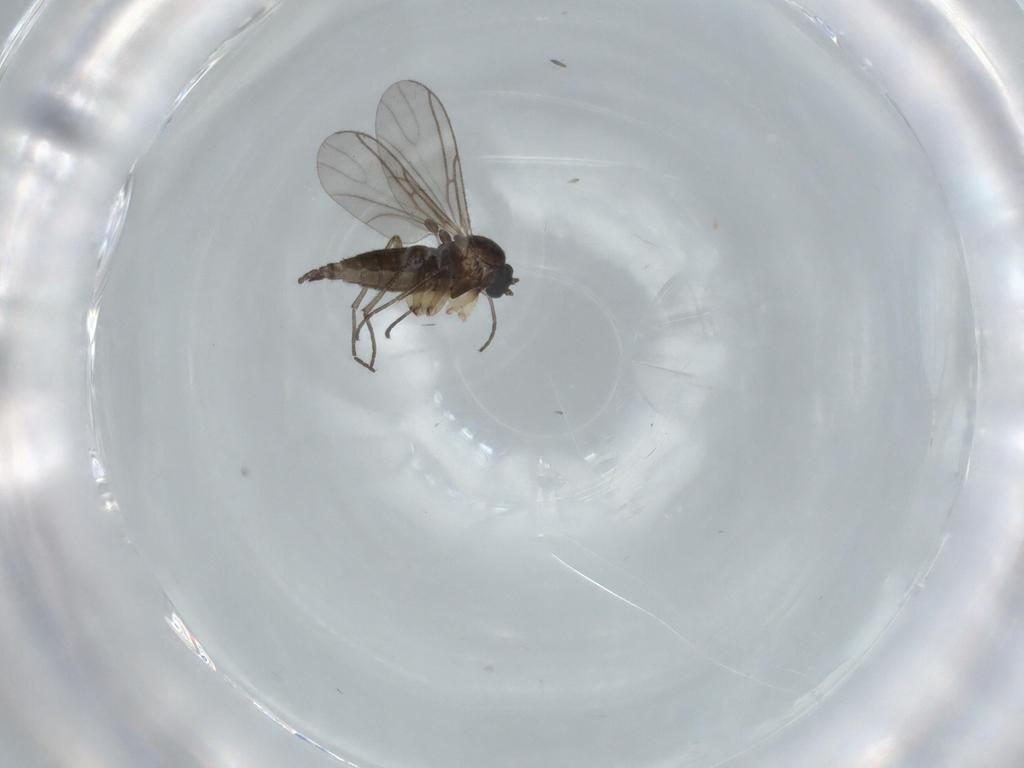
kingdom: Animalia
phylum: Arthropoda
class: Insecta
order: Diptera
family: Sciaridae
